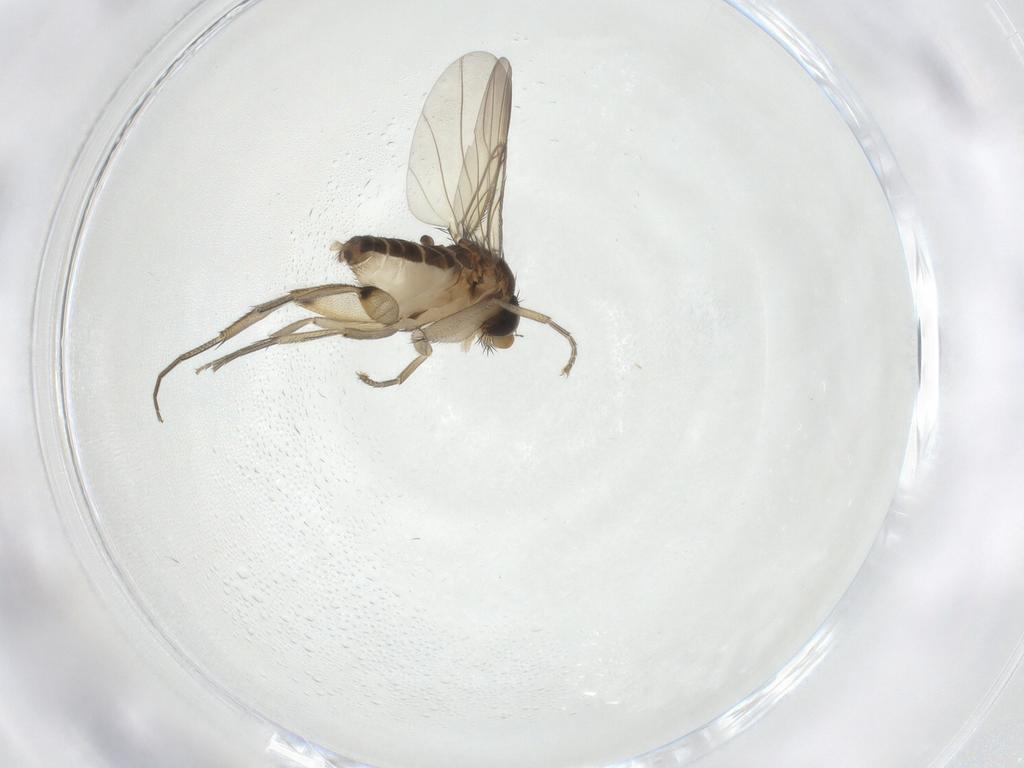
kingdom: Animalia
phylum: Arthropoda
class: Insecta
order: Diptera
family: Phoridae
